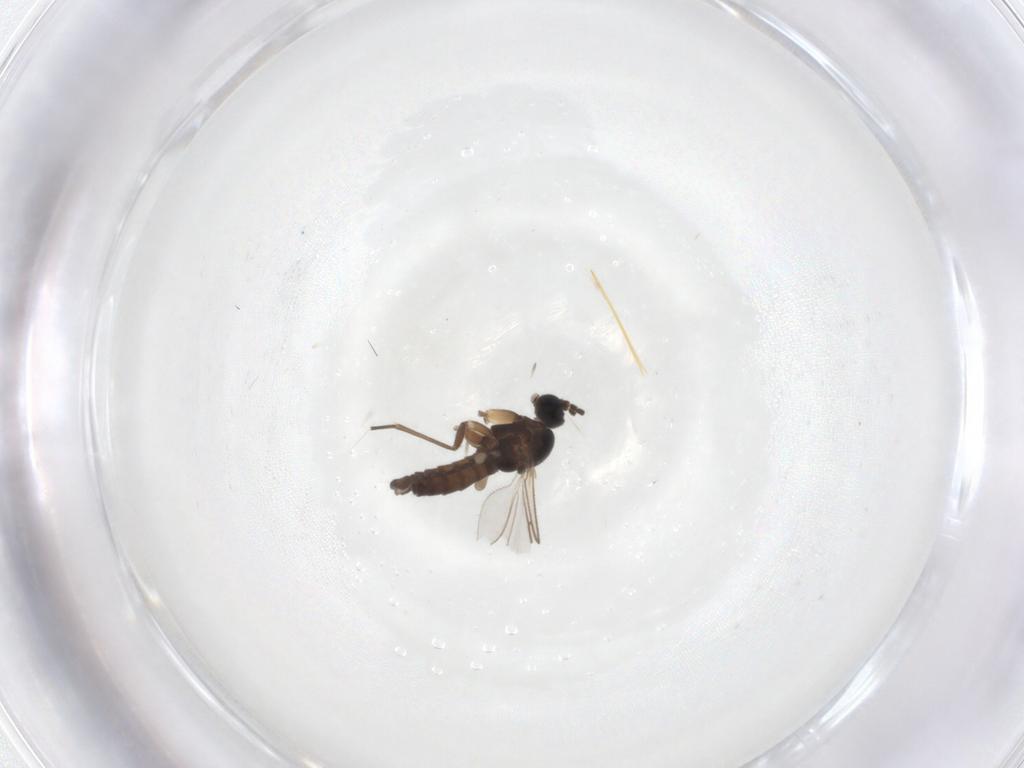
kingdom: Animalia
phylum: Arthropoda
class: Insecta
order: Diptera
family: Sciaridae
